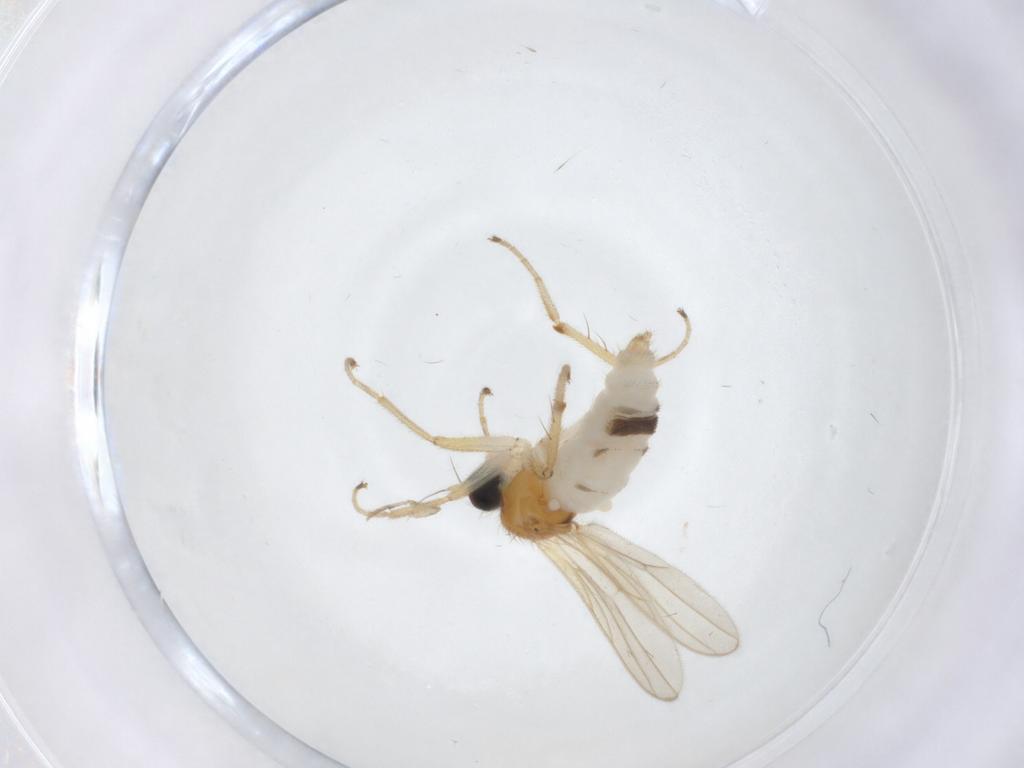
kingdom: Animalia
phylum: Arthropoda
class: Insecta
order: Diptera
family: Hybotidae
